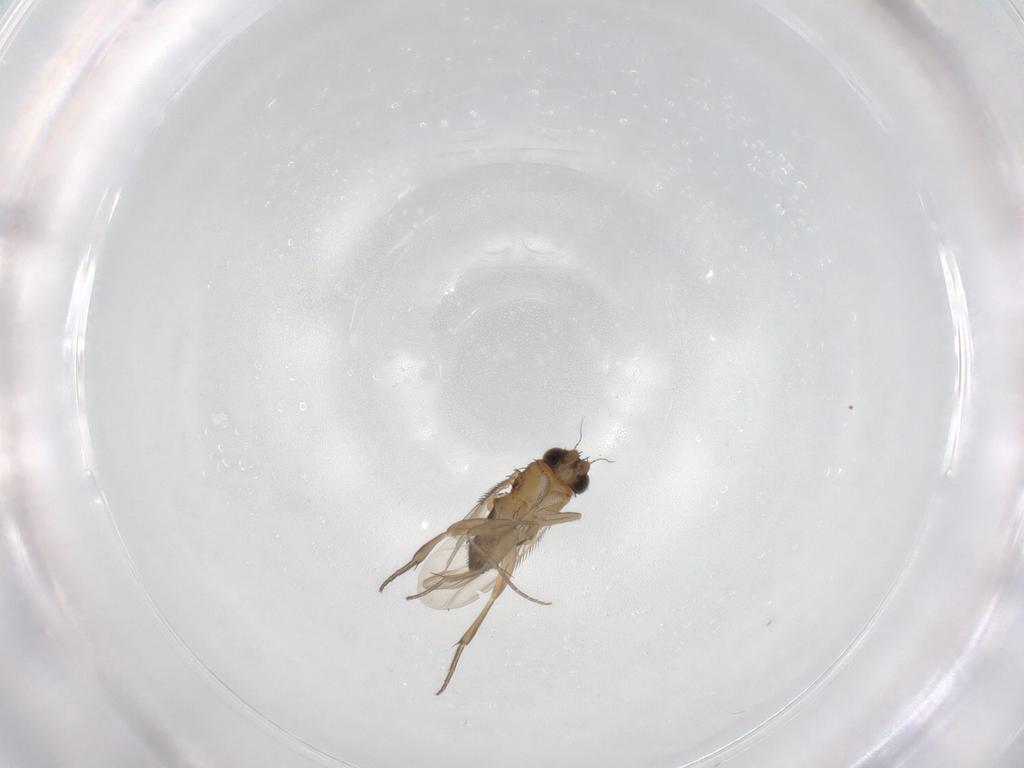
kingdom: Animalia
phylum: Arthropoda
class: Insecta
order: Diptera
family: Phoridae
